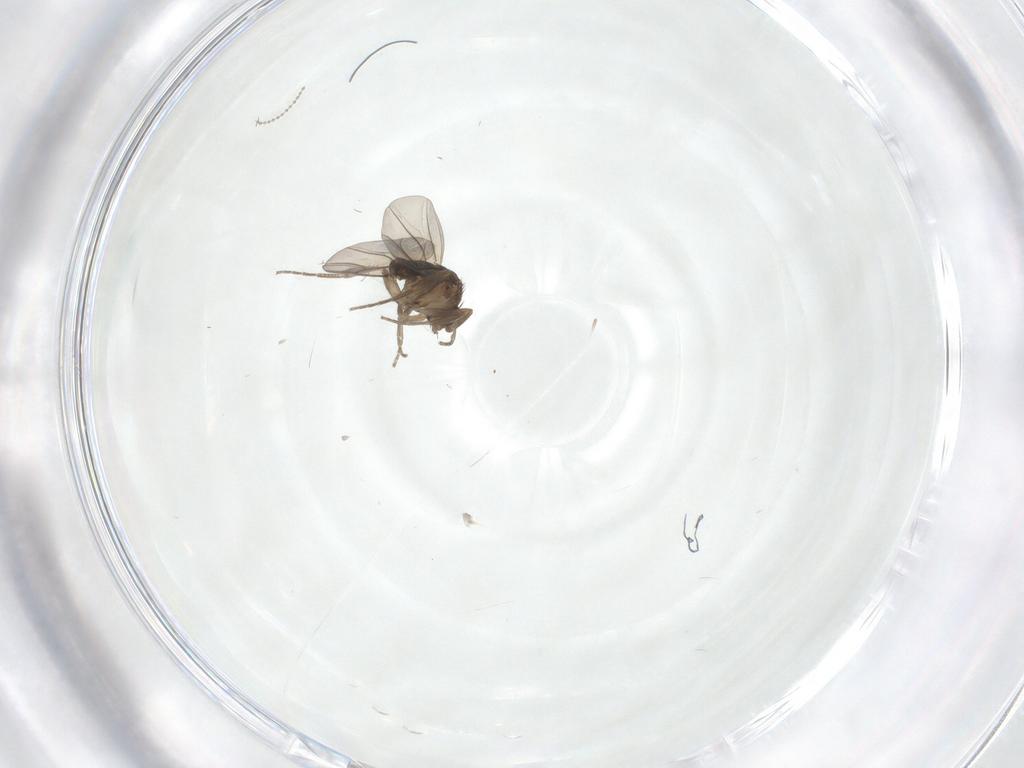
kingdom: Animalia
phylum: Arthropoda
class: Insecta
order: Diptera
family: Phoridae
